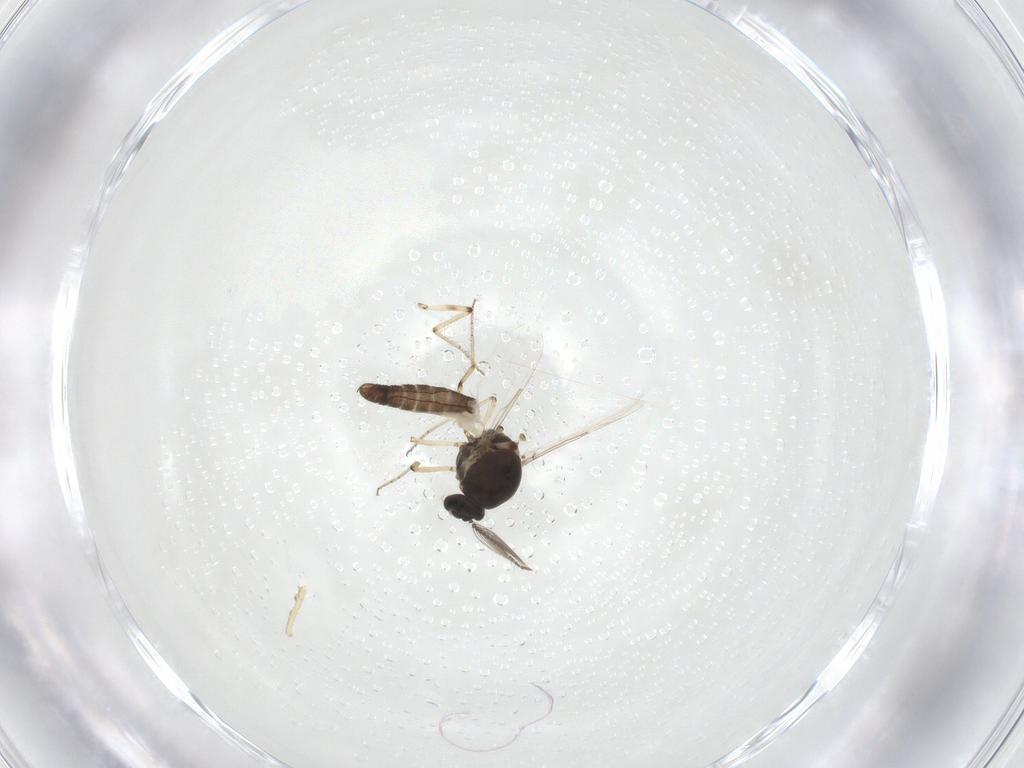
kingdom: Animalia
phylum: Arthropoda
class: Insecta
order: Diptera
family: Ceratopogonidae
